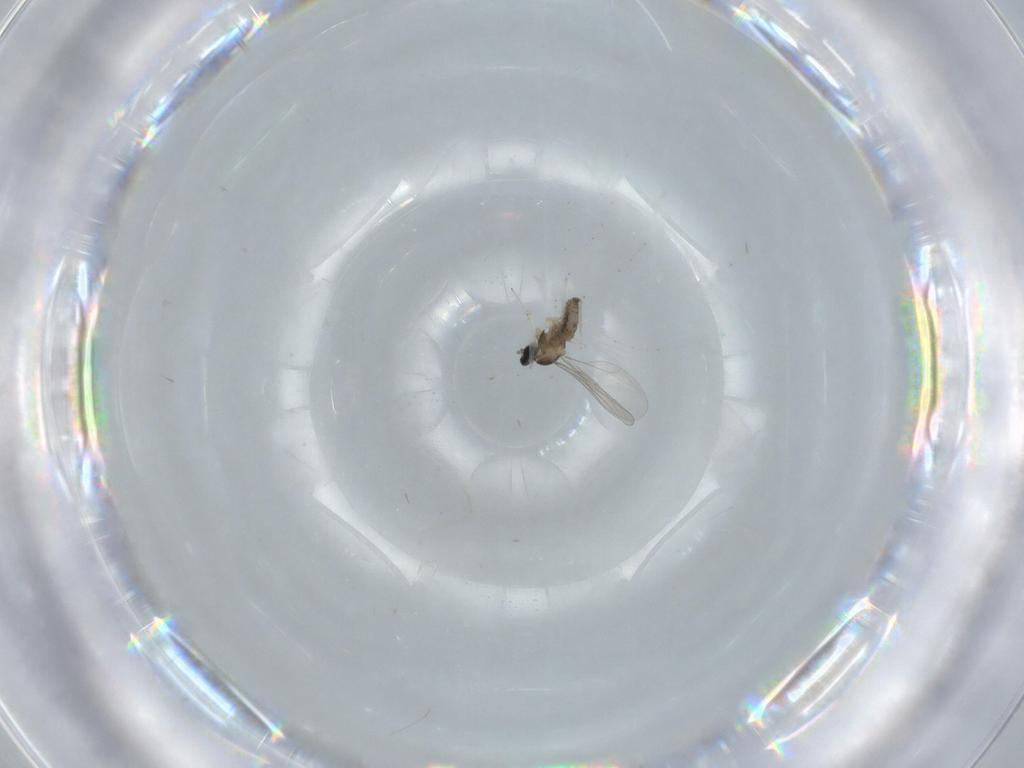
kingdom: Animalia
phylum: Arthropoda
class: Insecta
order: Diptera
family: Cecidomyiidae
